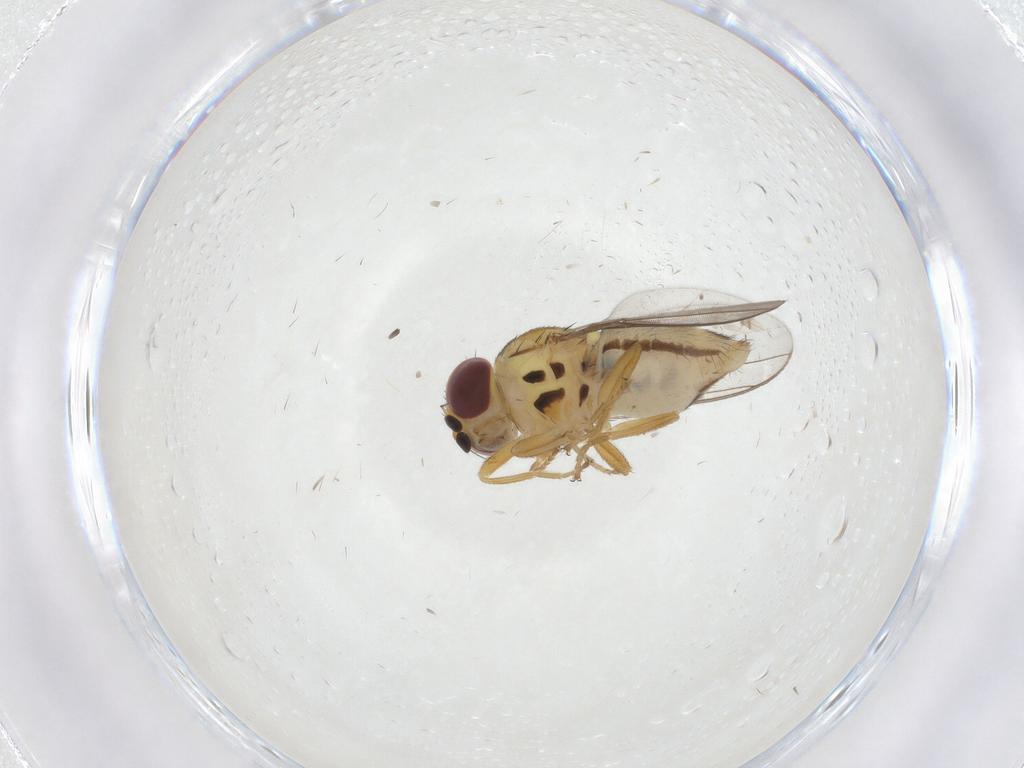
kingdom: Animalia
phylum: Arthropoda
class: Insecta
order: Diptera
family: Chloropidae
